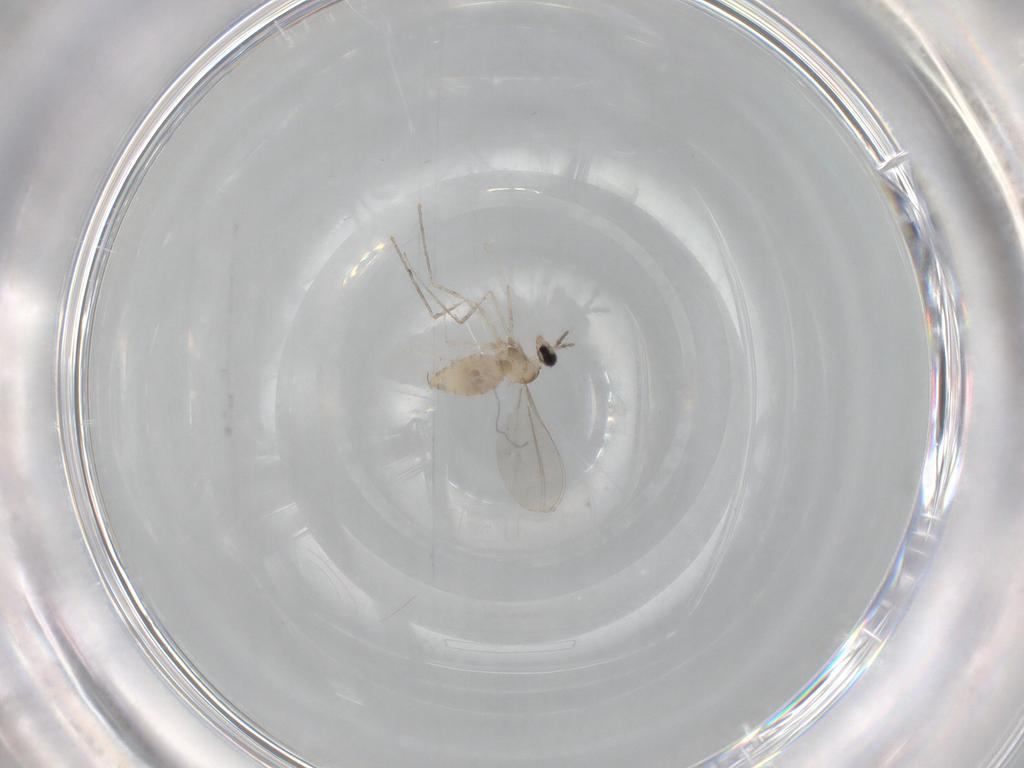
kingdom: Animalia
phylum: Arthropoda
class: Insecta
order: Diptera
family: Cecidomyiidae
